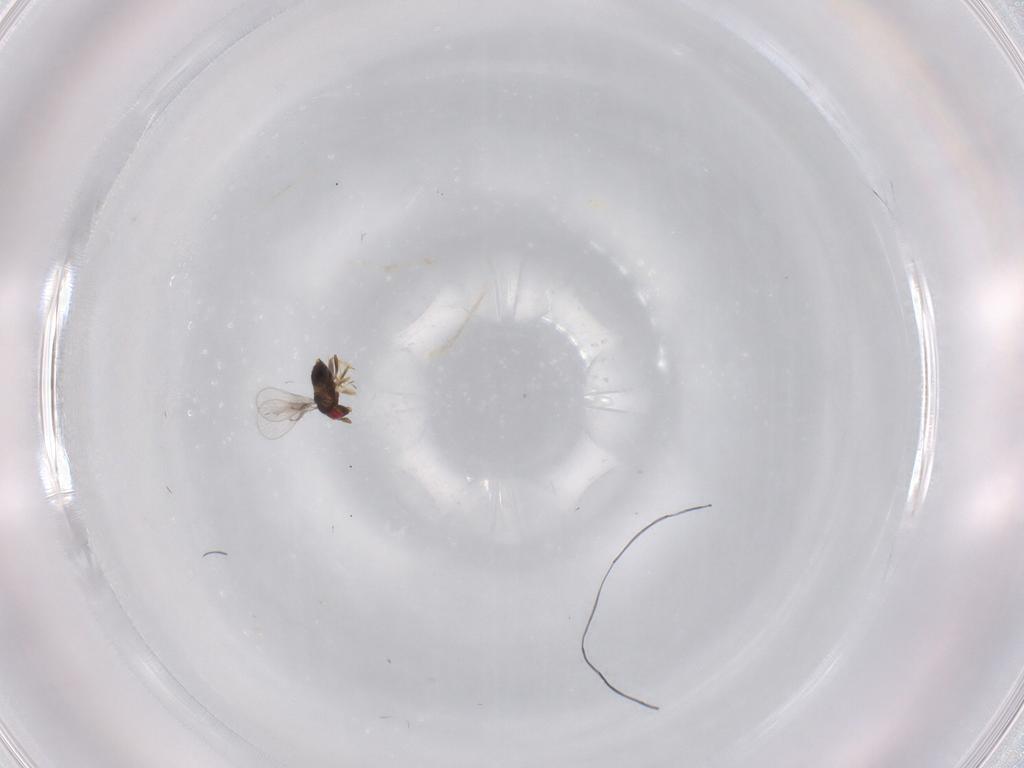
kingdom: Animalia
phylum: Arthropoda
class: Insecta
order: Hymenoptera
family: Trichogrammatidae
